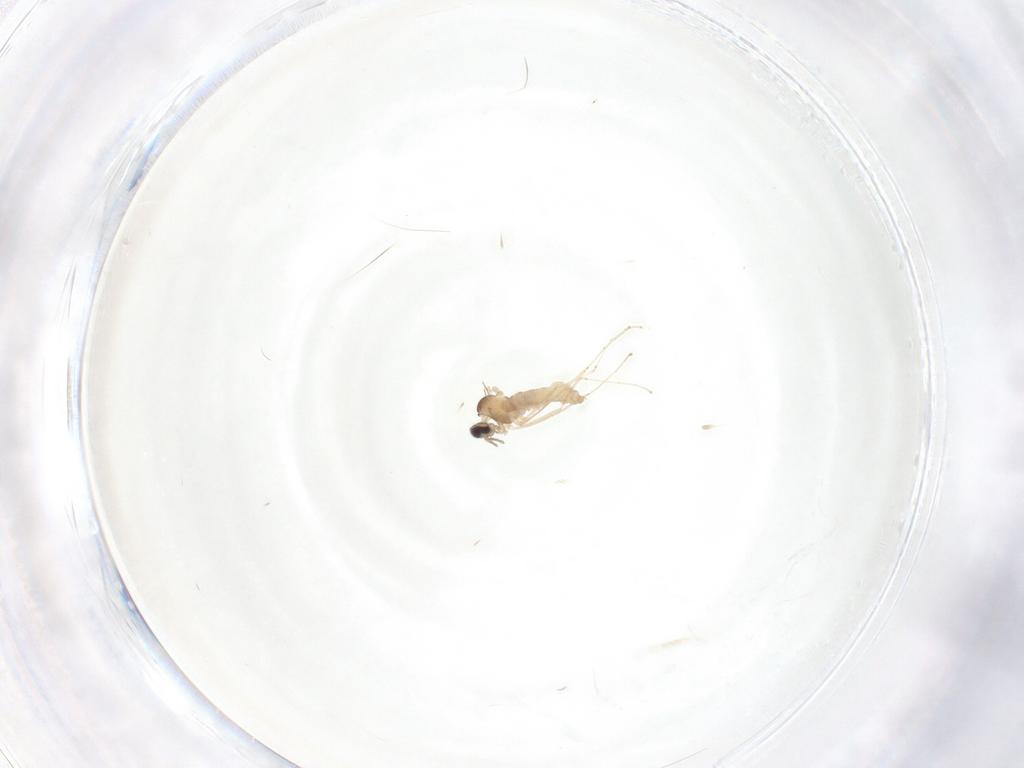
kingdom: Animalia
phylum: Arthropoda
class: Insecta
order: Diptera
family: Cecidomyiidae
